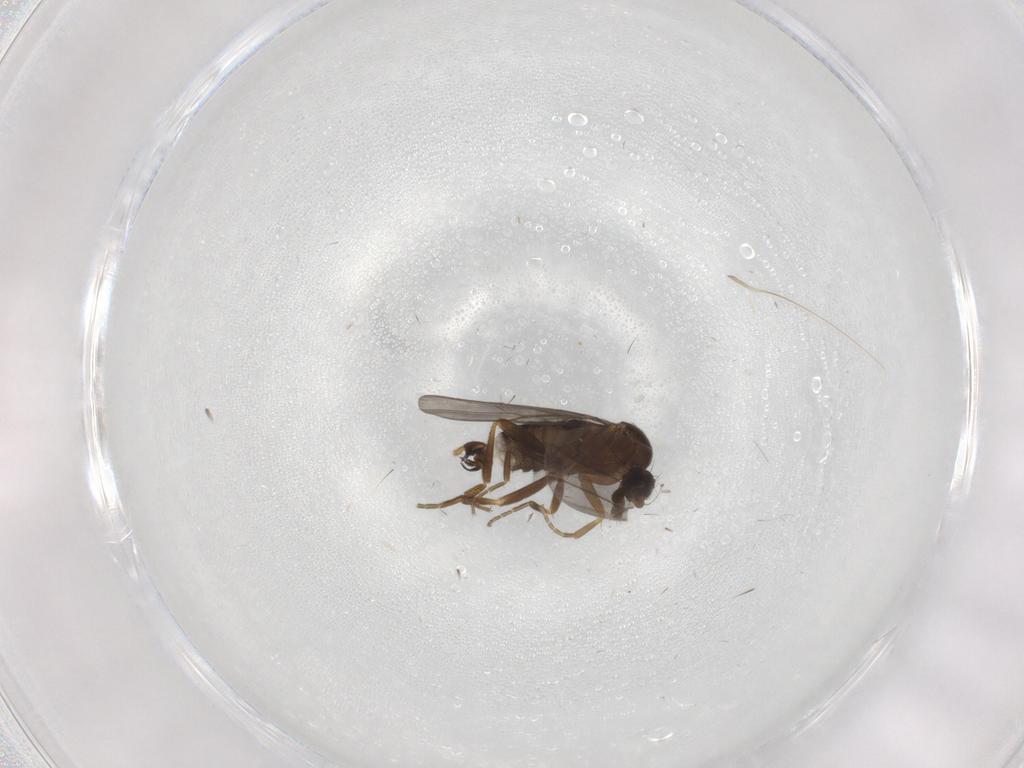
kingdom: Animalia
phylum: Arthropoda
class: Insecta
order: Diptera
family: Phoridae
